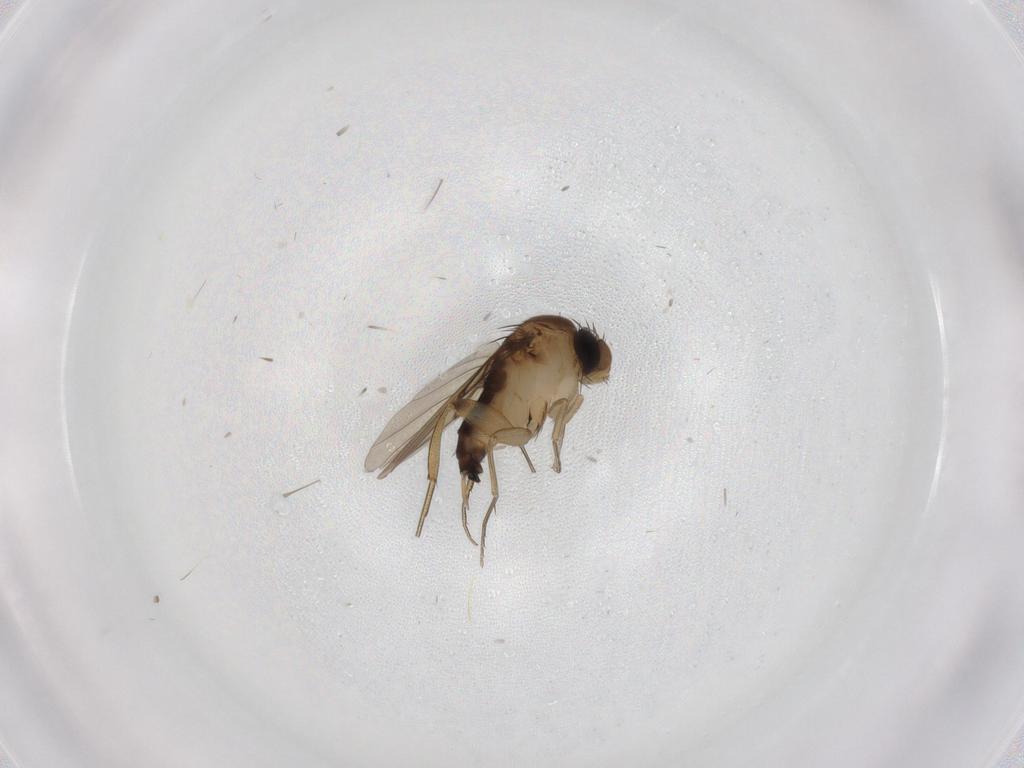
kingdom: Animalia
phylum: Arthropoda
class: Insecta
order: Diptera
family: Phoridae
